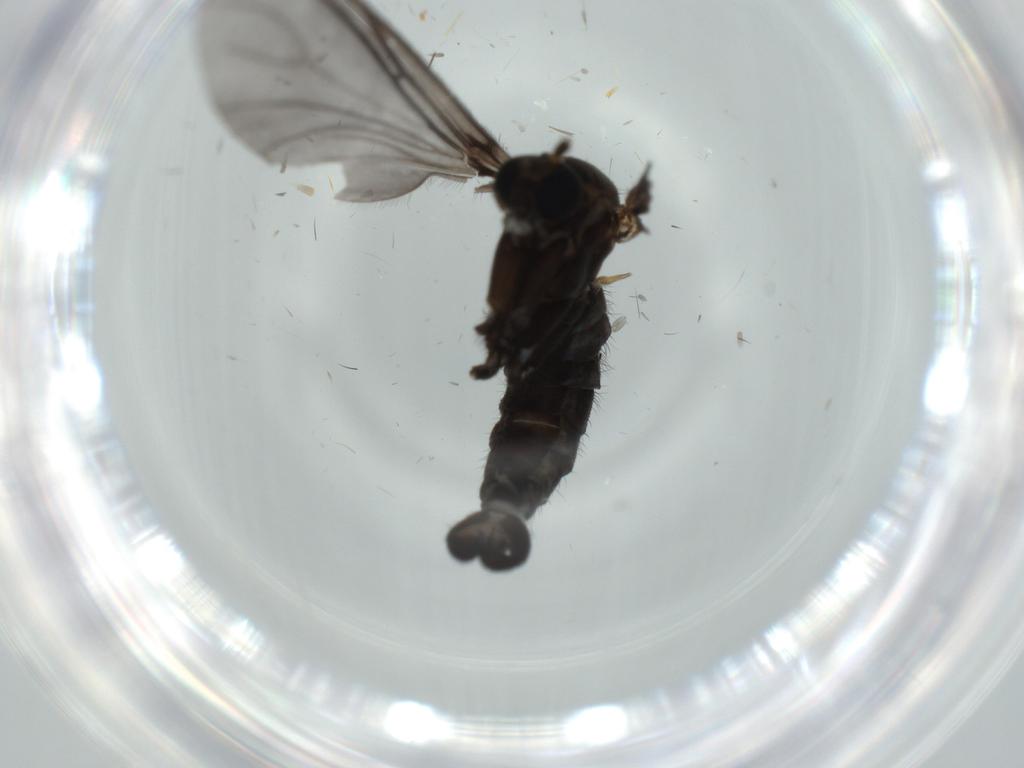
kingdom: Animalia
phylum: Arthropoda
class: Insecta
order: Diptera
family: Sciaridae
